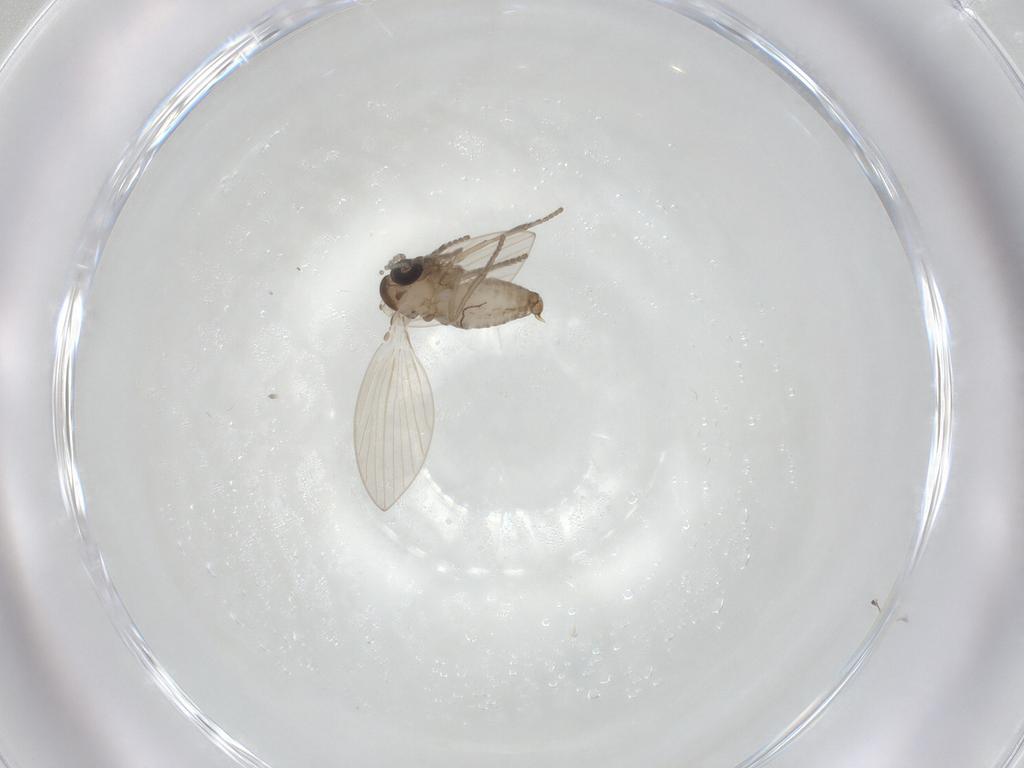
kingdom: Animalia
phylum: Arthropoda
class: Insecta
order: Diptera
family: Psychodidae
